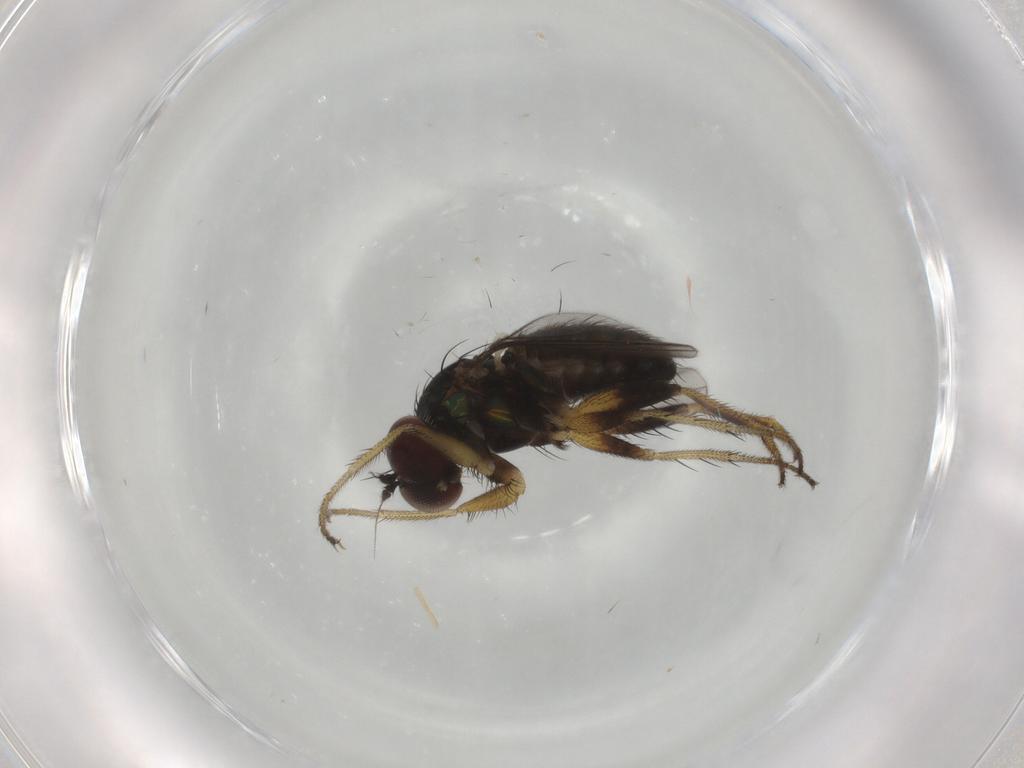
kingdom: Animalia
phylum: Arthropoda
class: Insecta
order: Diptera
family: Dolichopodidae
